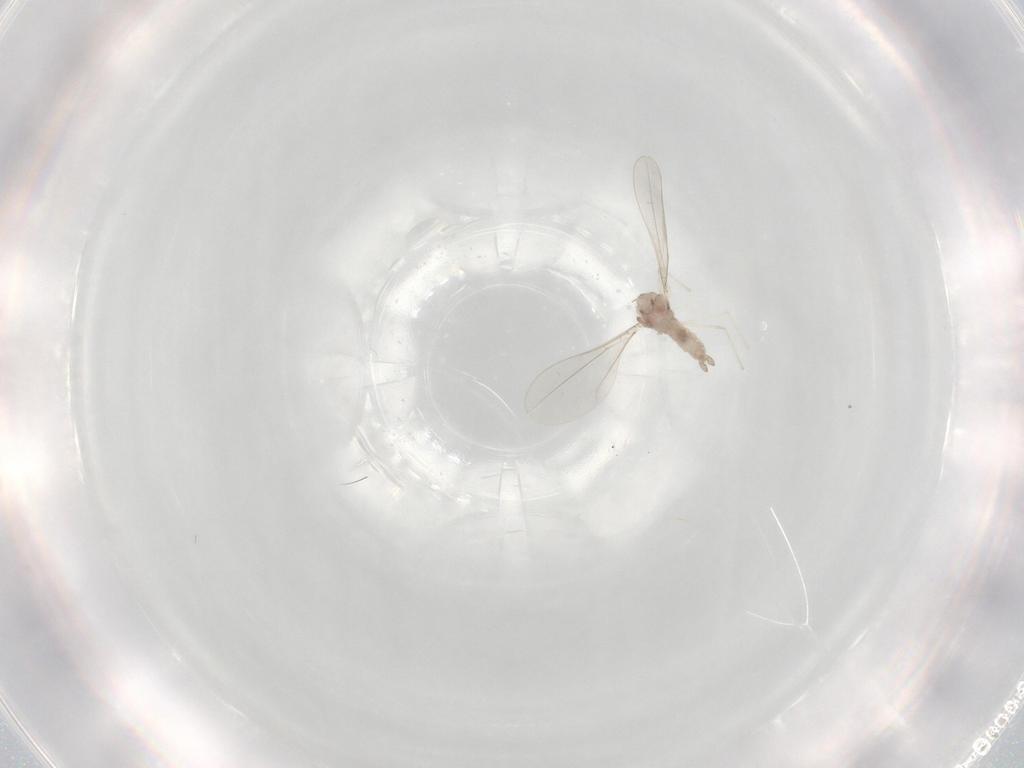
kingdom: Animalia
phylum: Arthropoda
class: Insecta
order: Diptera
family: Cecidomyiidae
